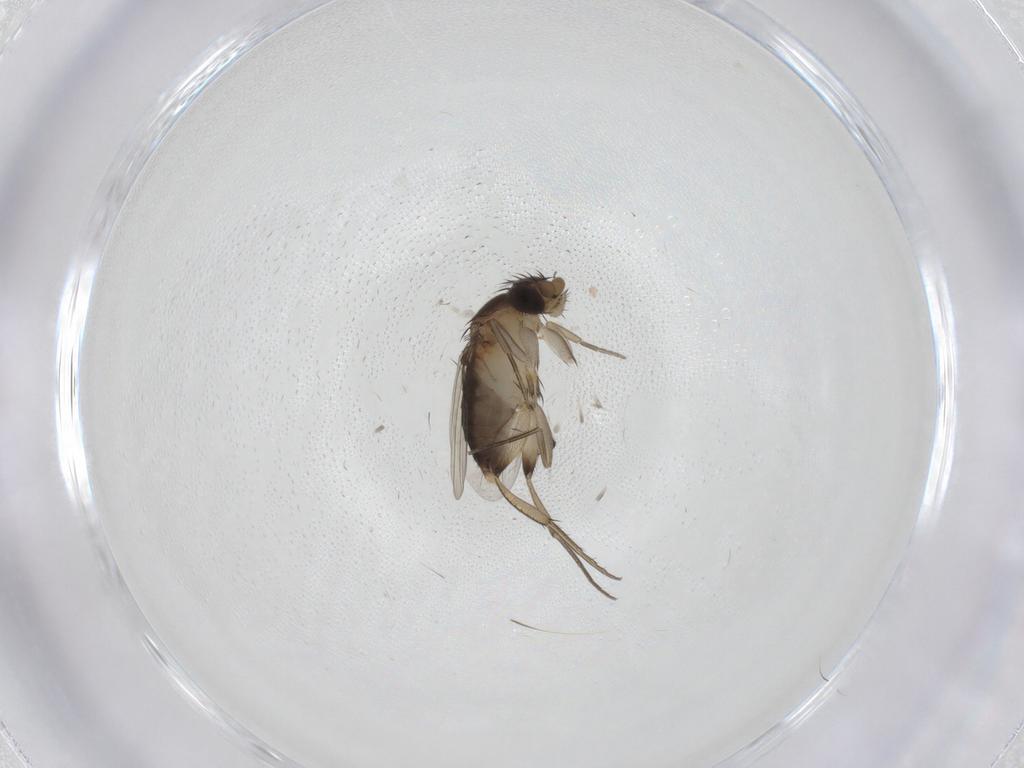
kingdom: Animalia
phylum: Arthropoda
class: Insecta
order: Diptera
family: Phoridae
